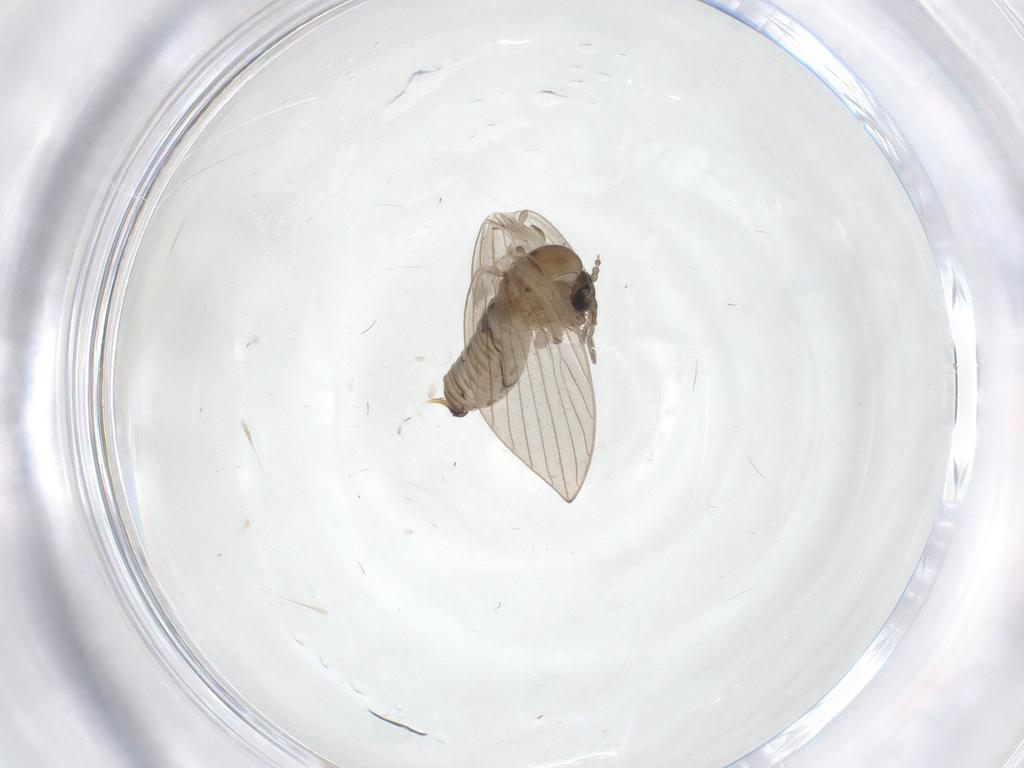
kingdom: Animalia
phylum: Arthropoda
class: Insecta
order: Diptera
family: Psychodidae
